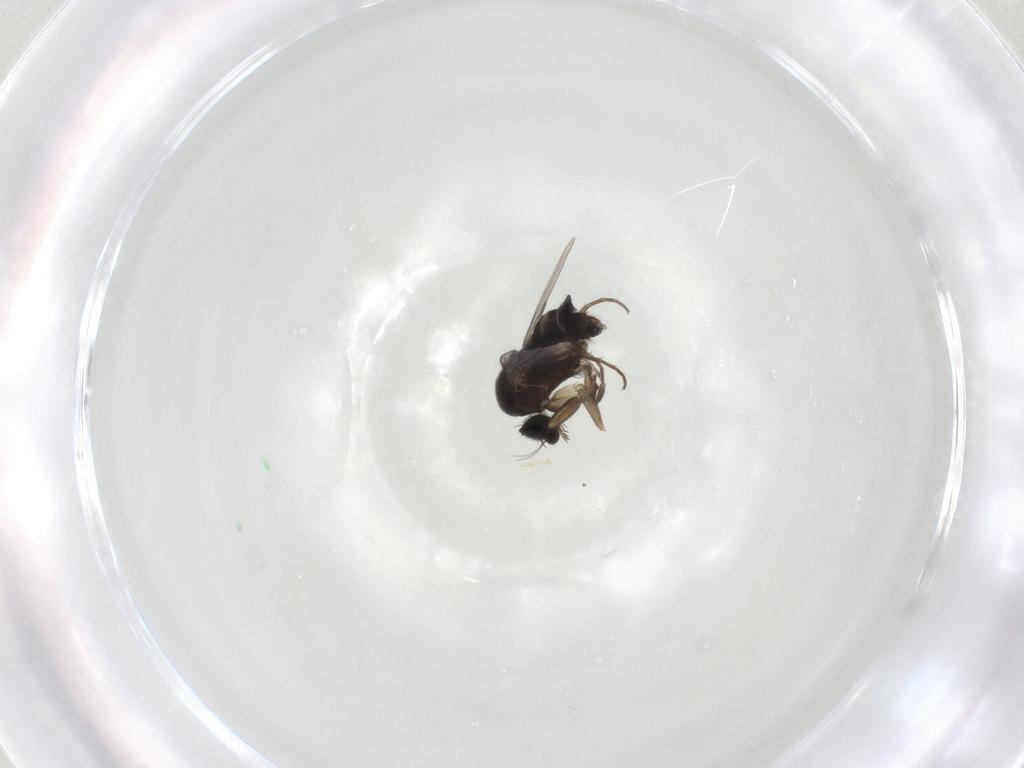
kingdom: Animalia
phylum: Arthropoda
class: Insecta
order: Diptera
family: Phoridae
